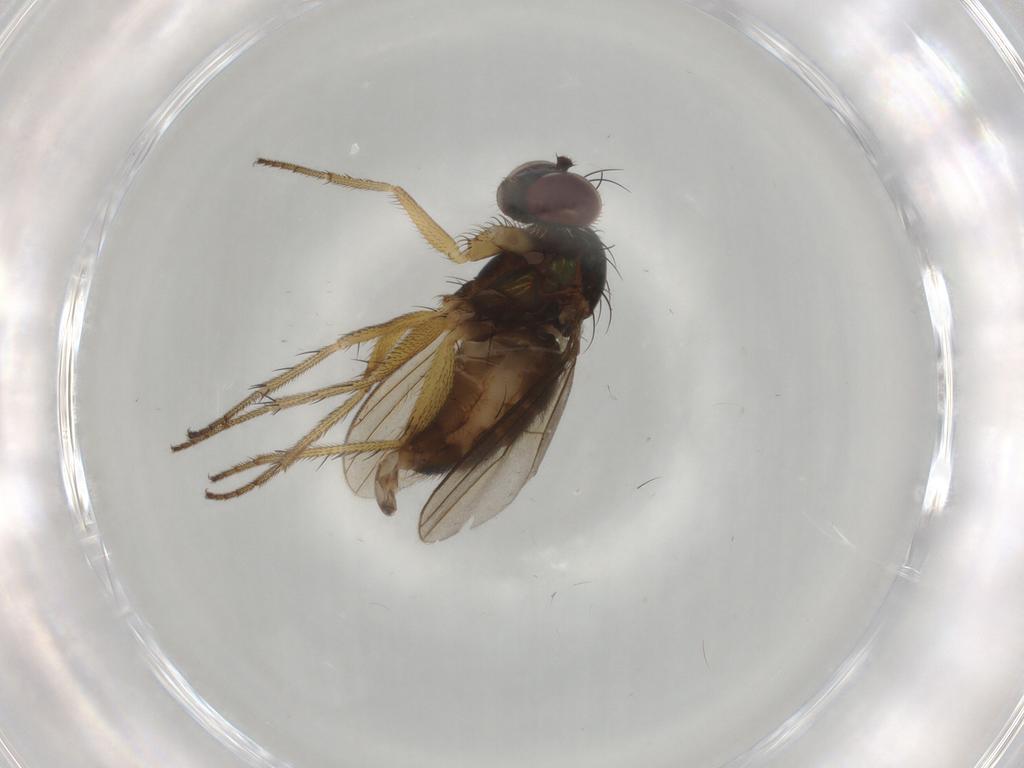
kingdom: Animalia
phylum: Arthropoda
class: Insecta
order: Diptera
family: Dolichopodidae
